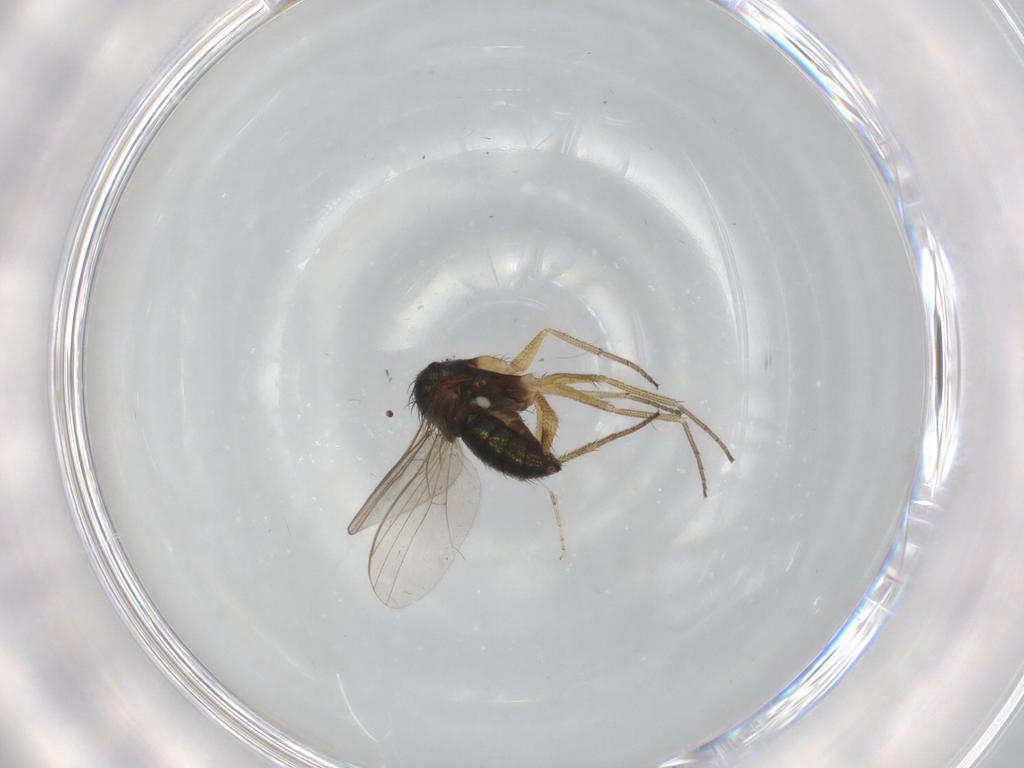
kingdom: Animalia
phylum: Arthropoda
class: Insecta
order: Diptera
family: Dolichopodidae
